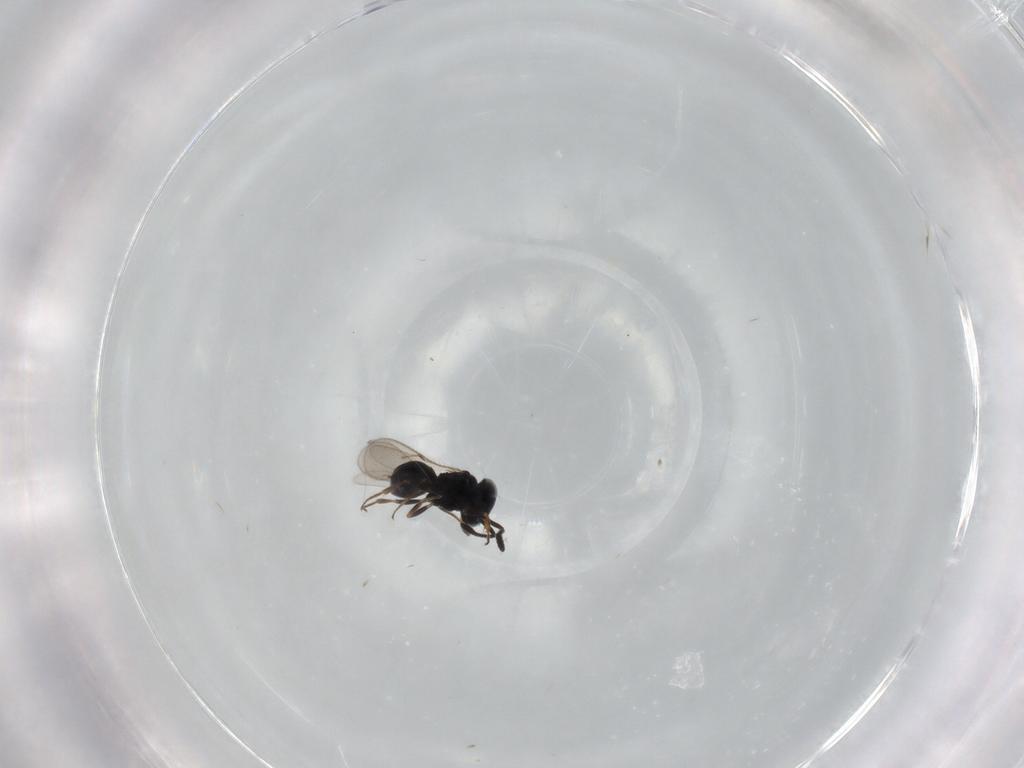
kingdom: Animalia
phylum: Arthropoda
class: Insecta
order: Hymenoptera
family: Scelionidae
